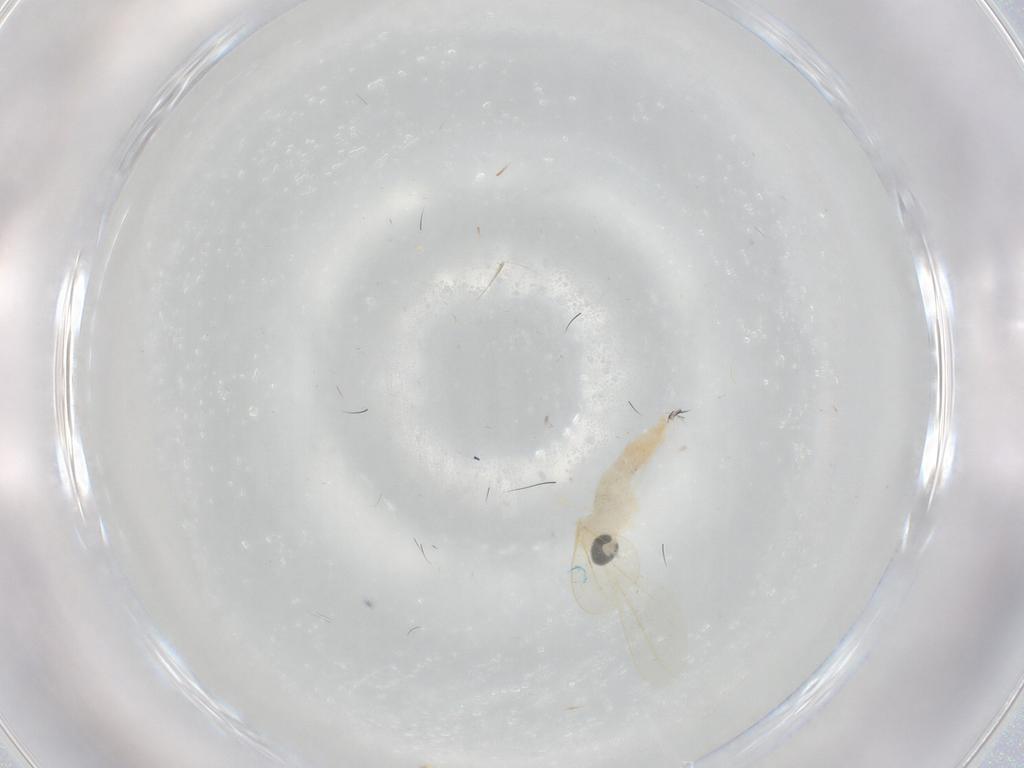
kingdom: Animalia
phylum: Arthropoda
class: Insecta
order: Diptera
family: Cecidomyiidae
